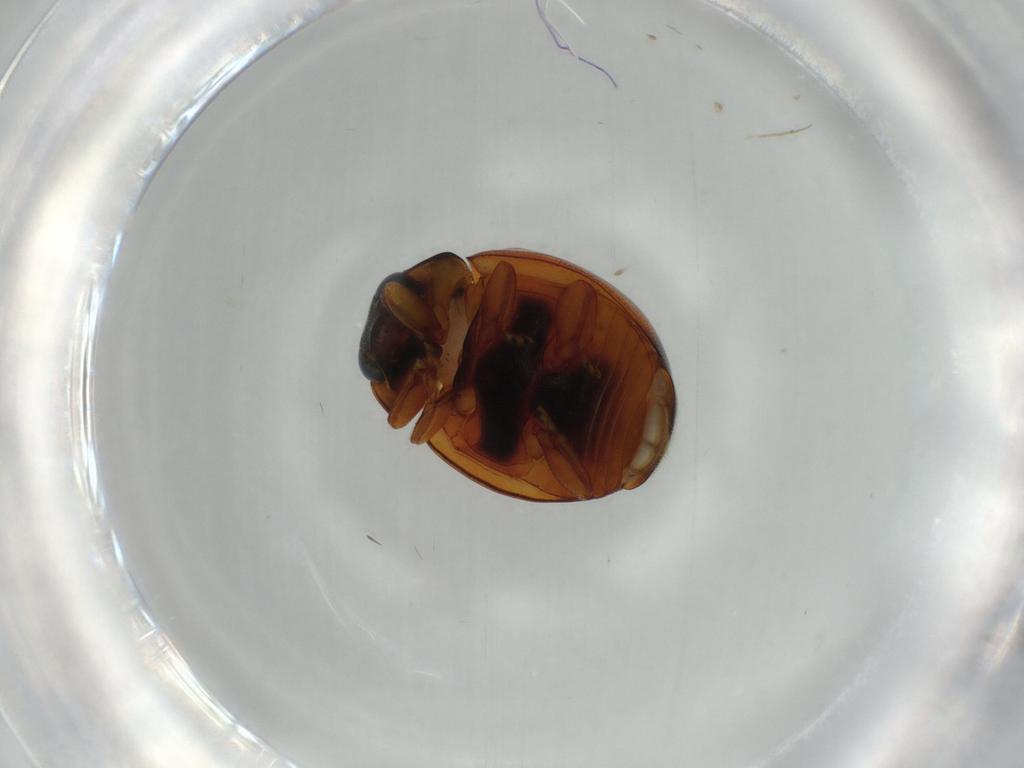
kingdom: Animalia
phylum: Arthropoda
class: Insecta
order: Coleoptera
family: Coccinellidae
